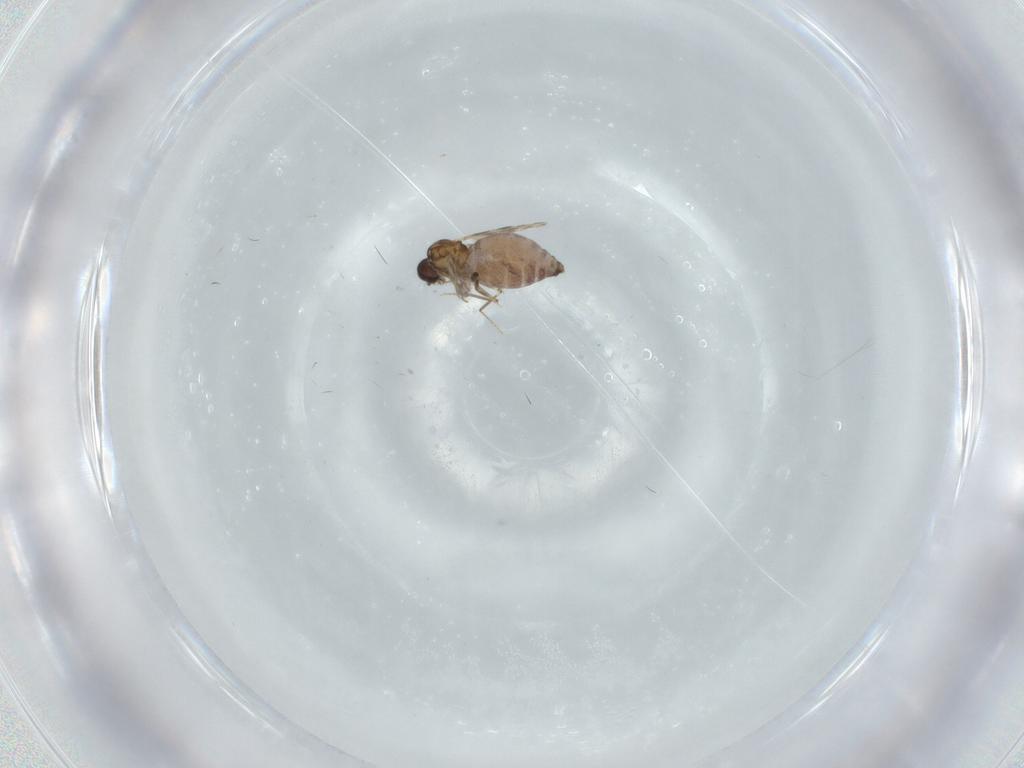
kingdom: Animalia
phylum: Arthropoda
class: Insecta
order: Diptera
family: Ceratopogonidae
